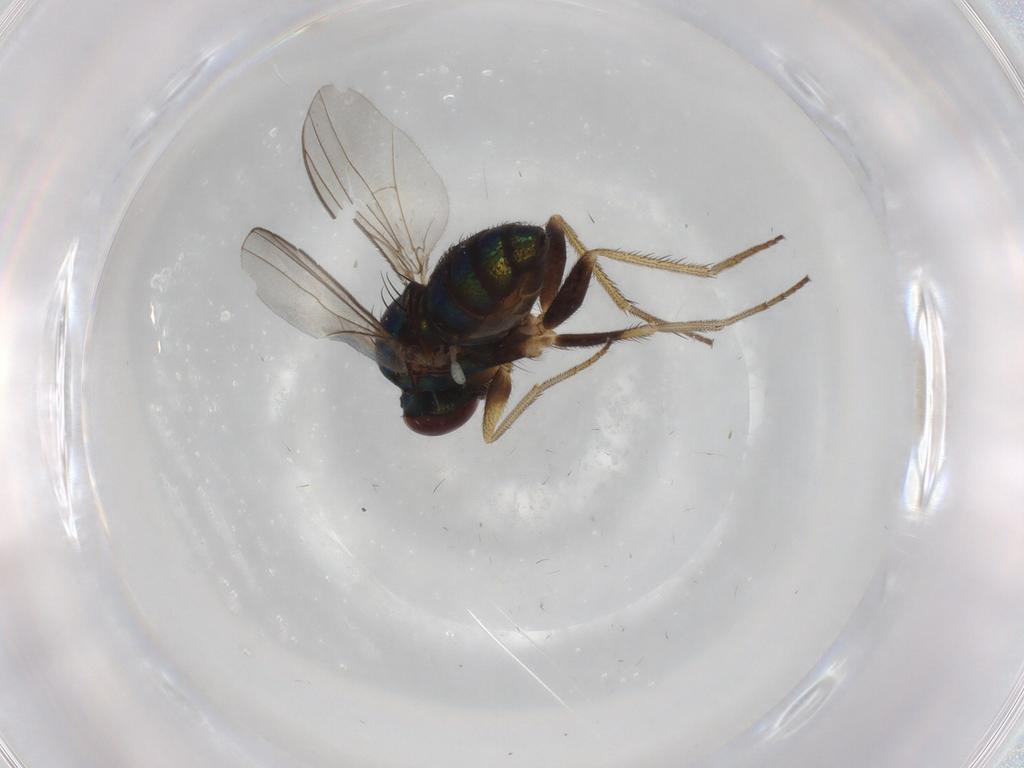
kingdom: Animalia
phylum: Arthropoda
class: Insecta
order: Diptera
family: Dolichopodidae
